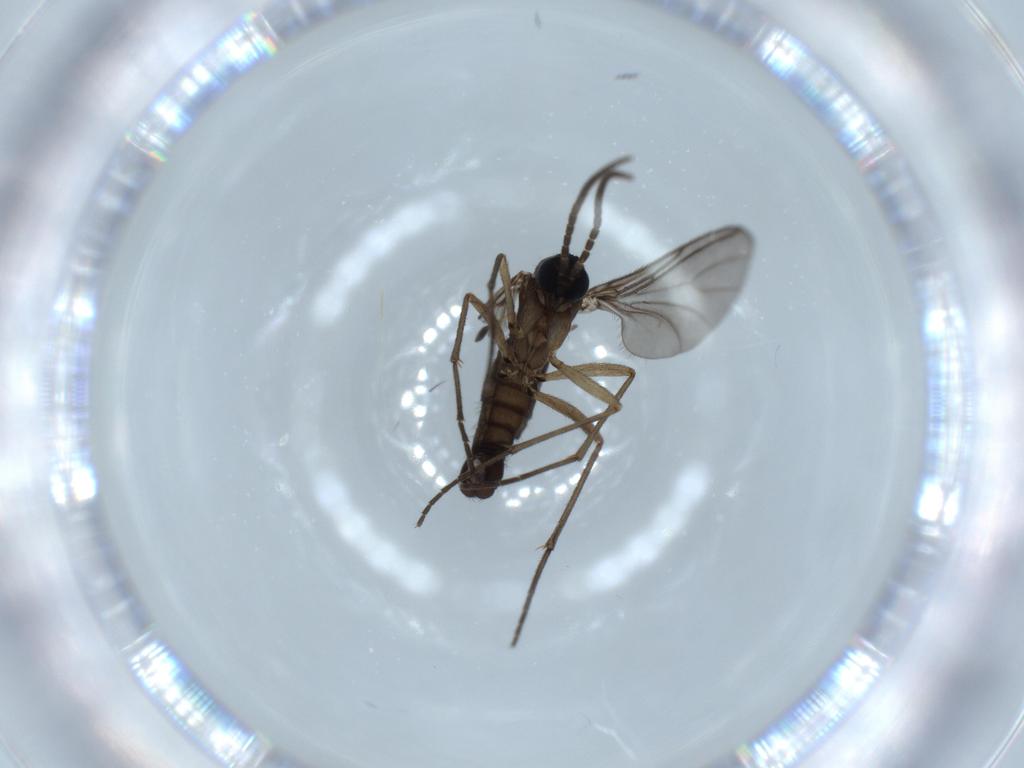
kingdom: Animalia
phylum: Arthropoda
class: Insecta
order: Diptera
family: Sciaridae
